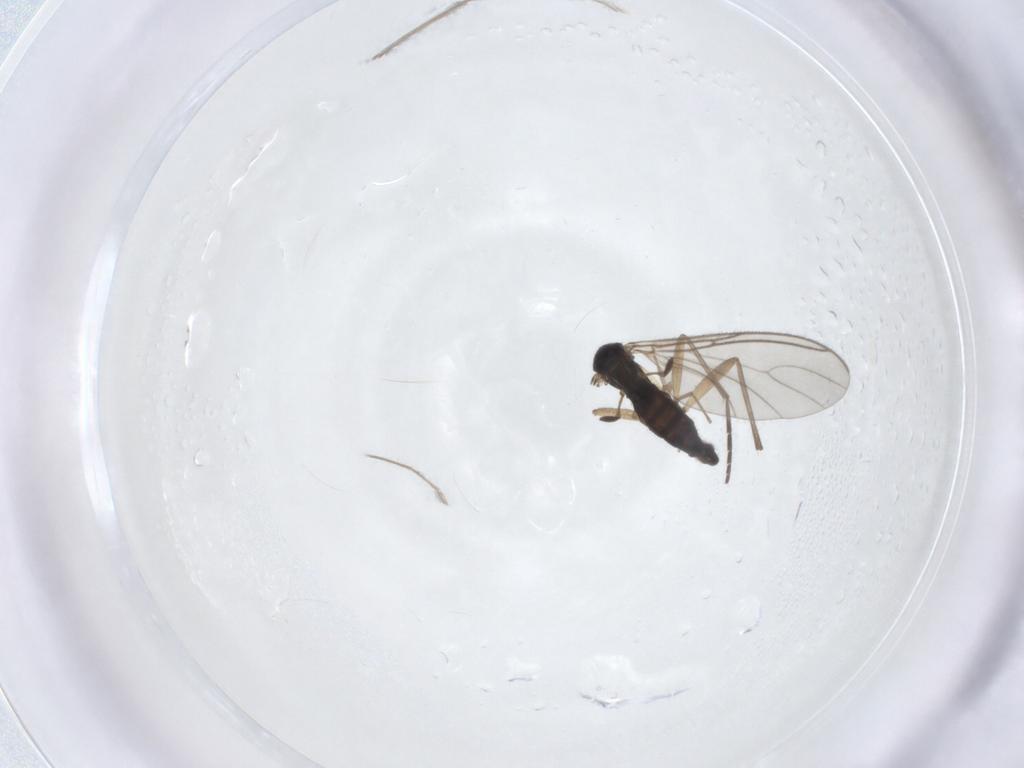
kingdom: Animalia
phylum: Arthropoda
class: Insecta
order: Diptera
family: Sciaridae
